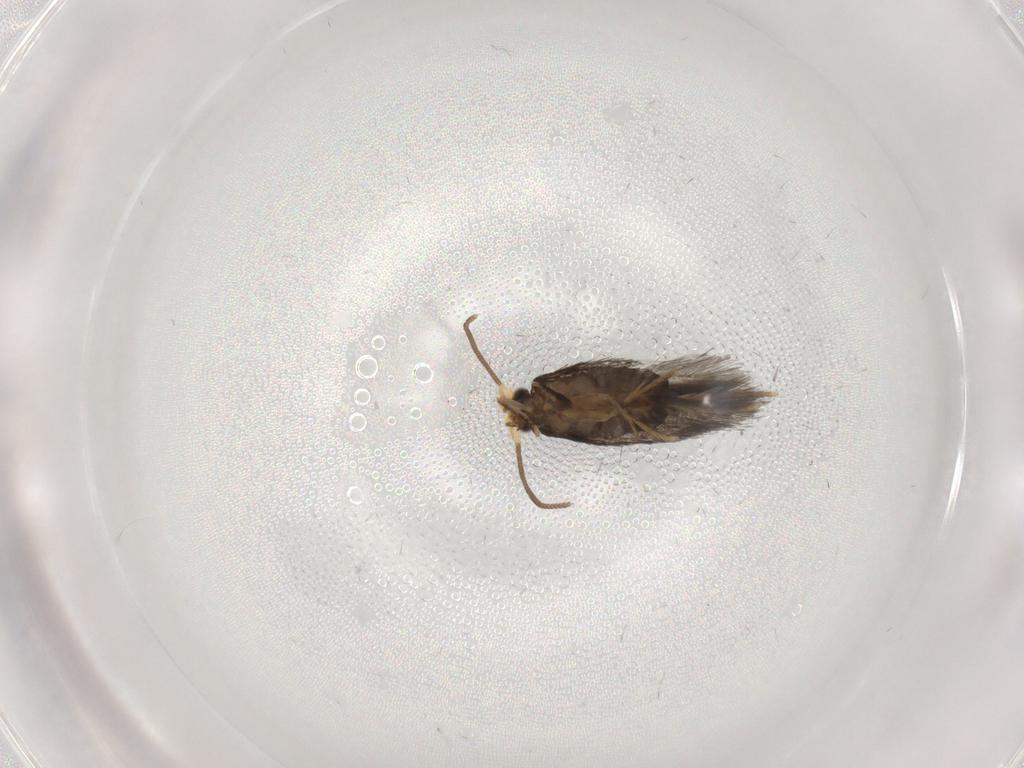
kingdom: Animalia
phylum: Arthropoda
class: Insecta
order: Lepidoptera
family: Nepticulidae
